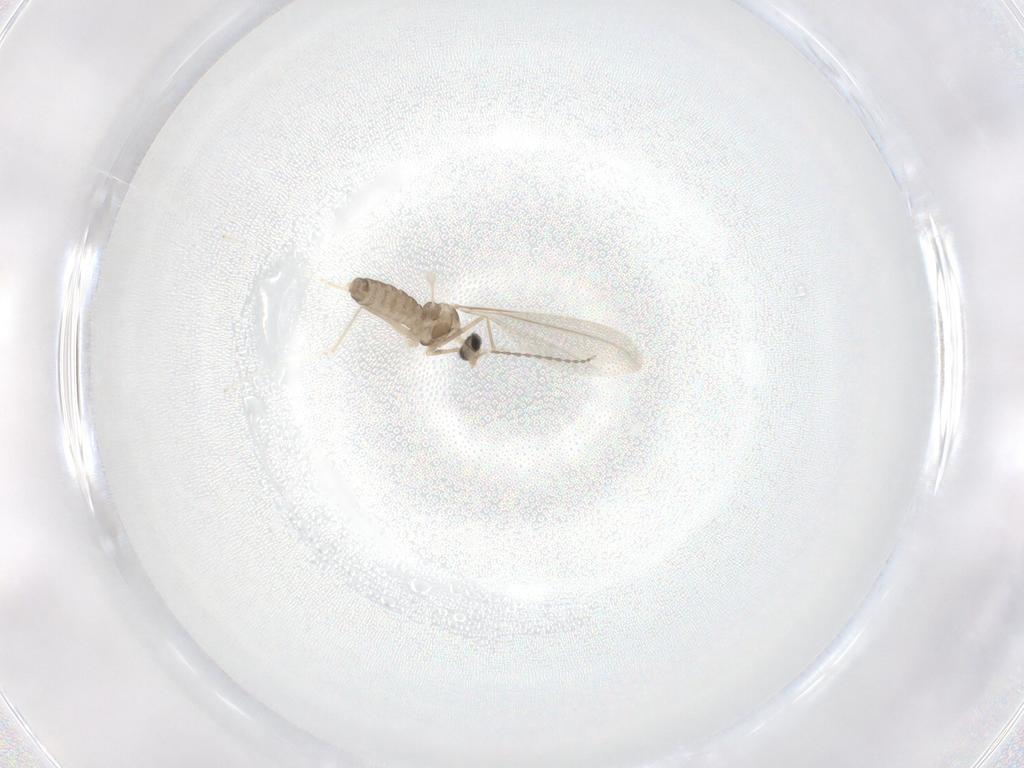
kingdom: Animalia
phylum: Arthropoda
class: Insecta
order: Diptera
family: Cecidomyiidae
